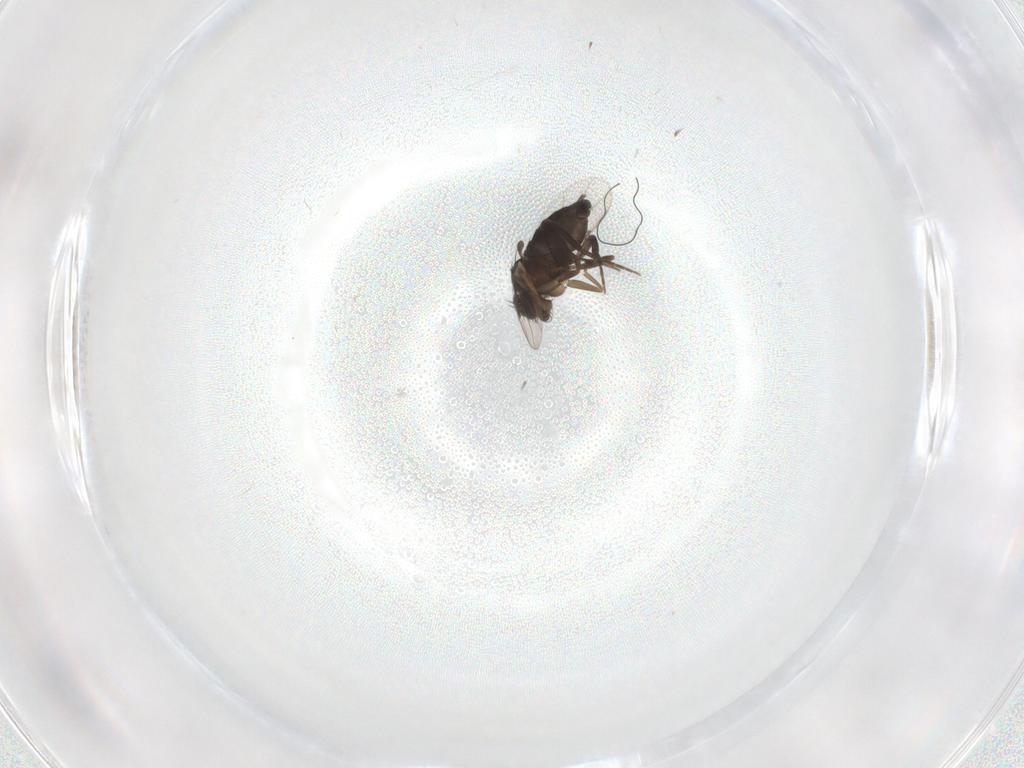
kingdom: Animalia
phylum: Arthropoda
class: Insecta
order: Diptera
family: Phoridae
